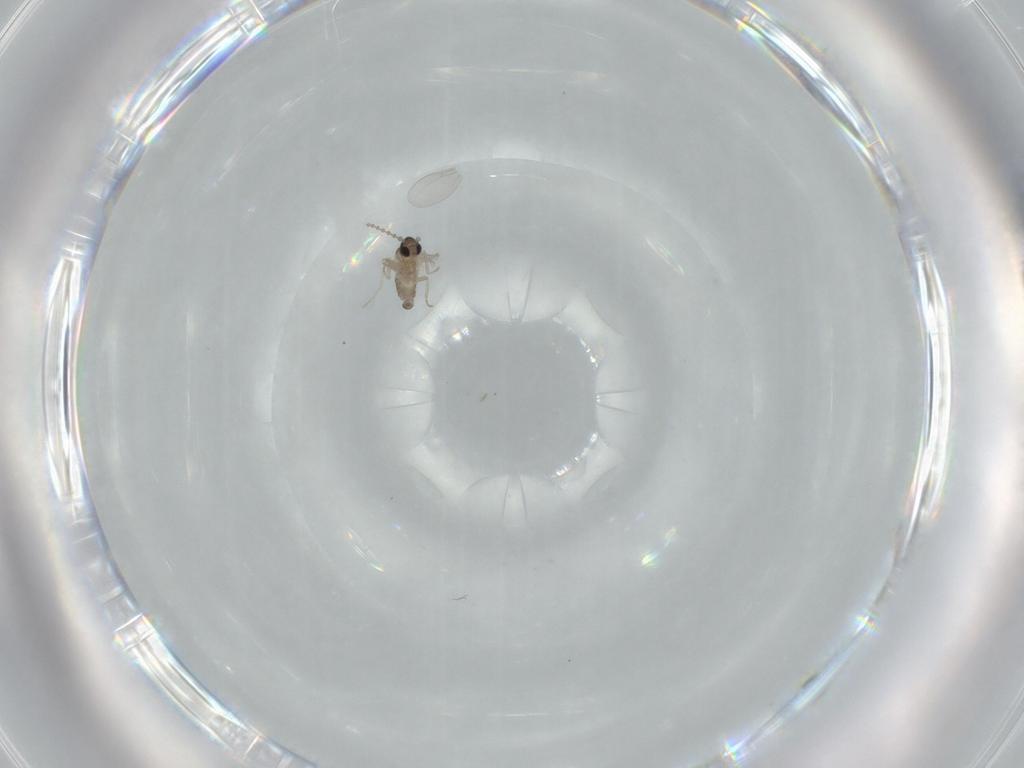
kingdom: Animalia
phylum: Arthropoda
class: Insecta
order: Diptera
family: Cecidomyiidae
